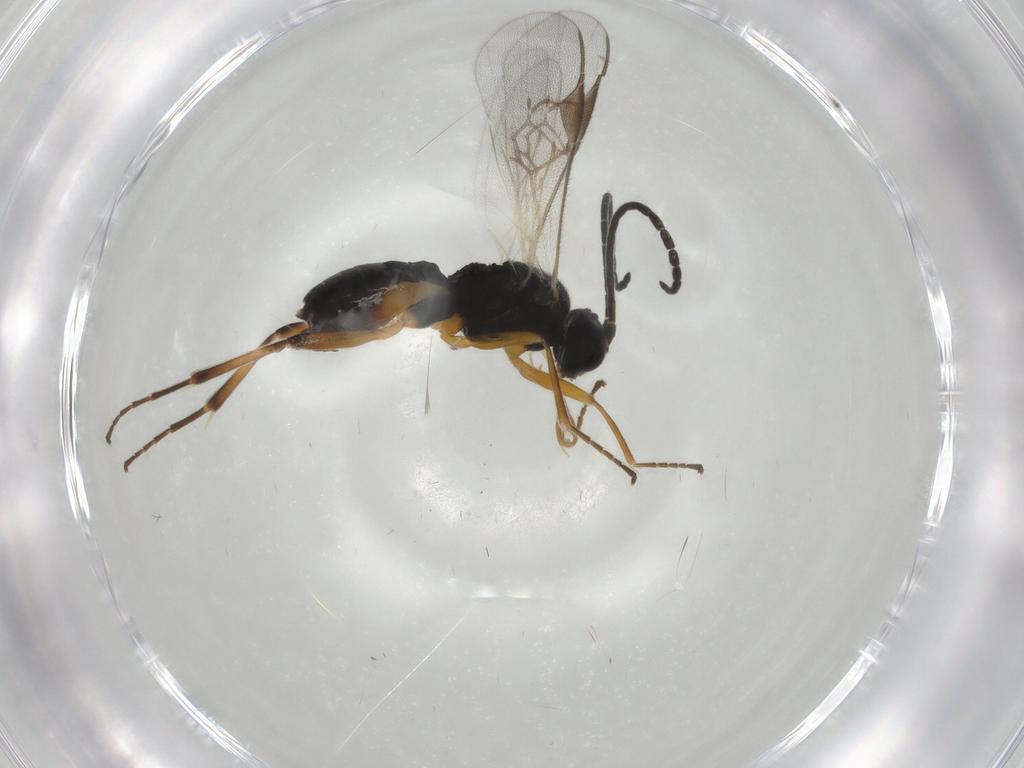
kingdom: Animalia
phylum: Arthropoda
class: Insecta
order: Hymenoptera
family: Braconidae
